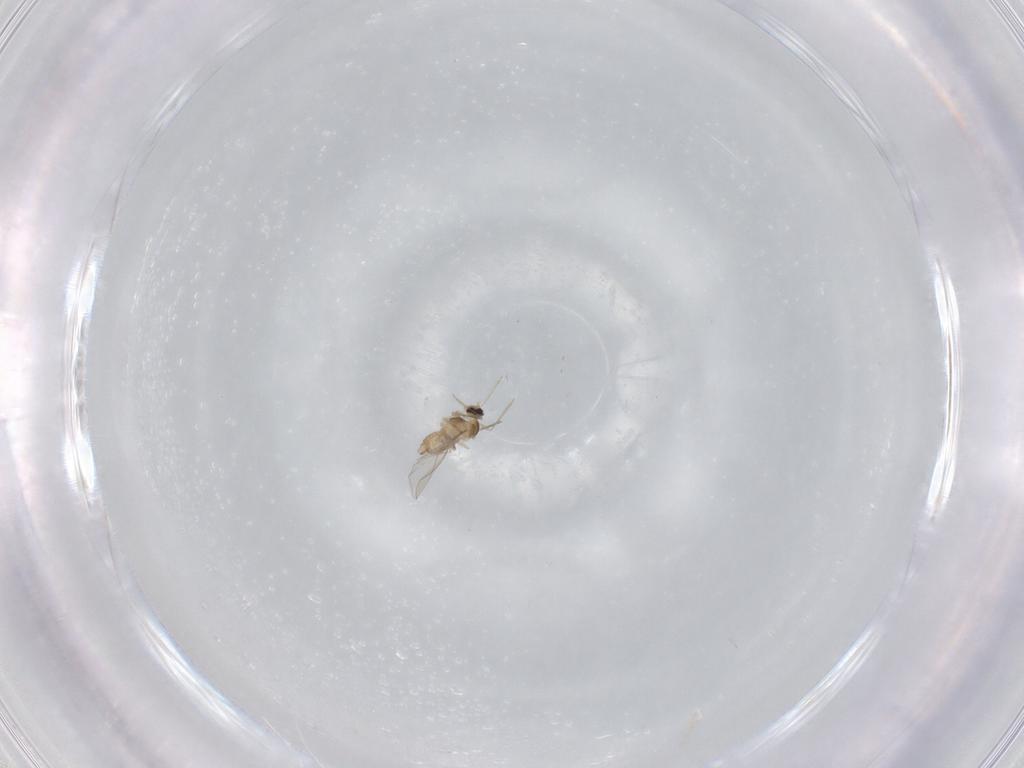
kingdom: Animalia
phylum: Arthropoda
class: Insecta
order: Diptera
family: Cecidomyiidae
